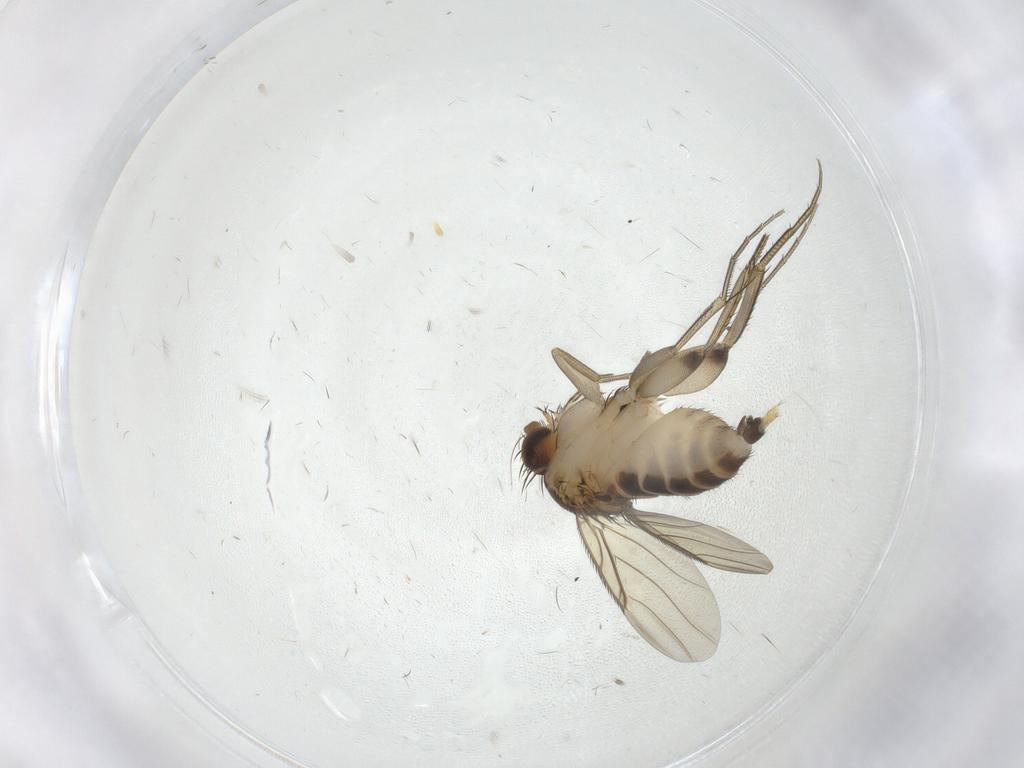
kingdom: Animalia
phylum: Arthropoda
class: Insecta
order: Diptera
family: Phoridae
